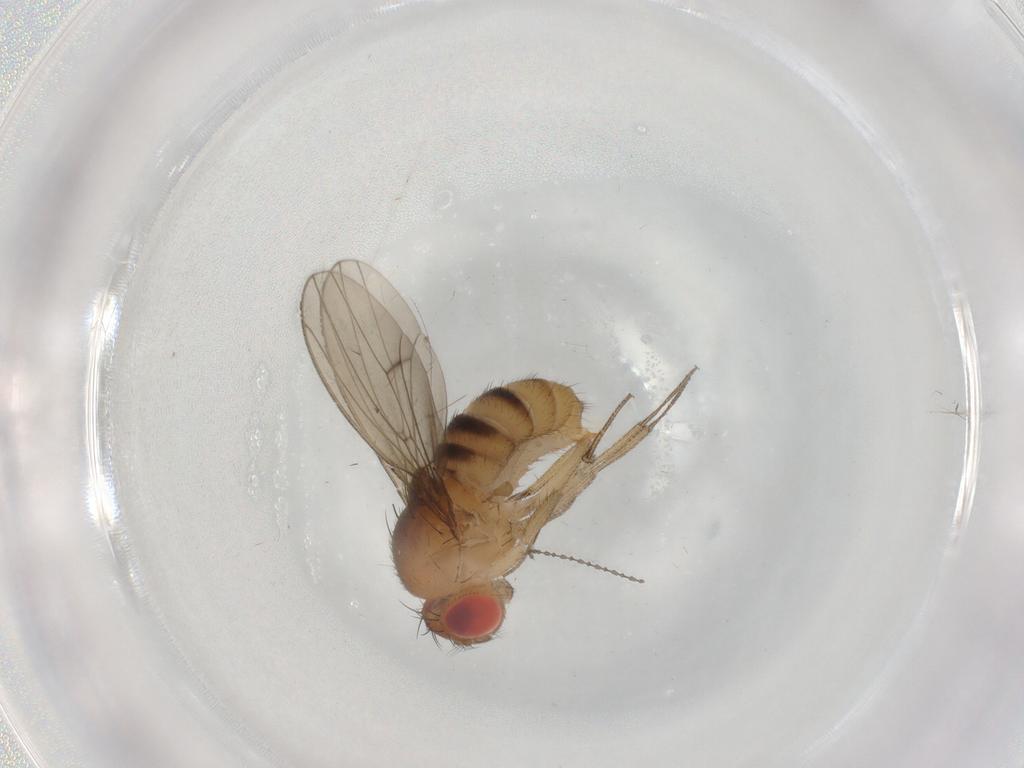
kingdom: Animalia
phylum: Arthropoda
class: Insecta
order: Diptera
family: Drosophilidae
